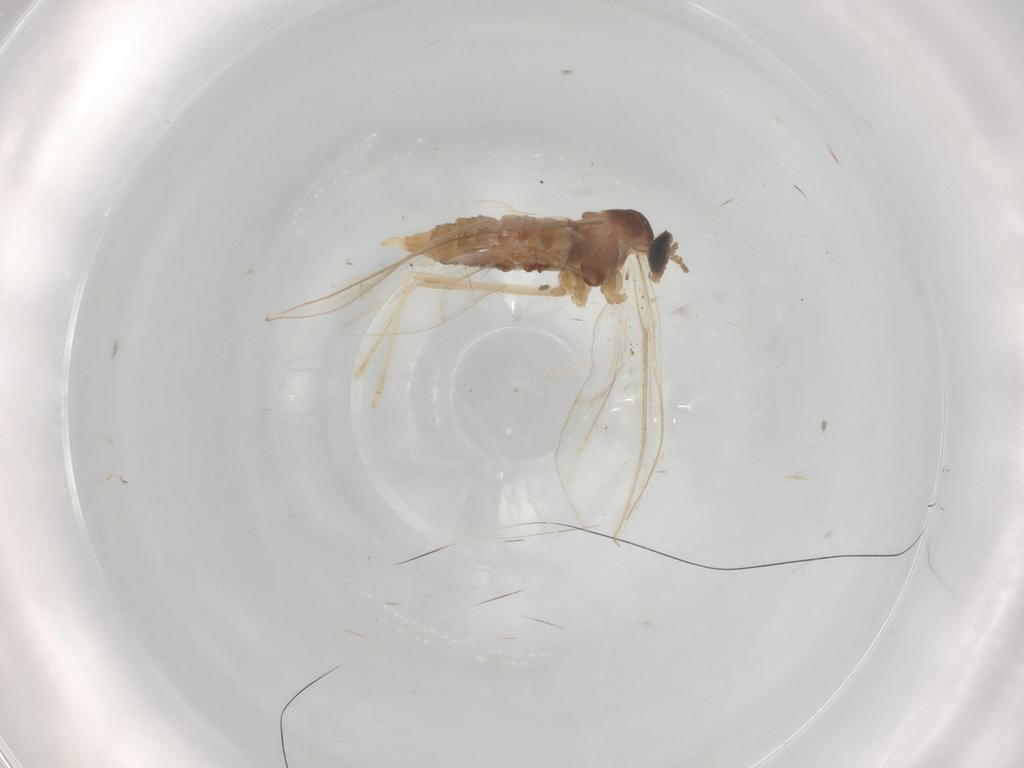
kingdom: Animalia
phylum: Arthropoda
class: Insecta
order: Diptera
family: Cecidomyiidae
